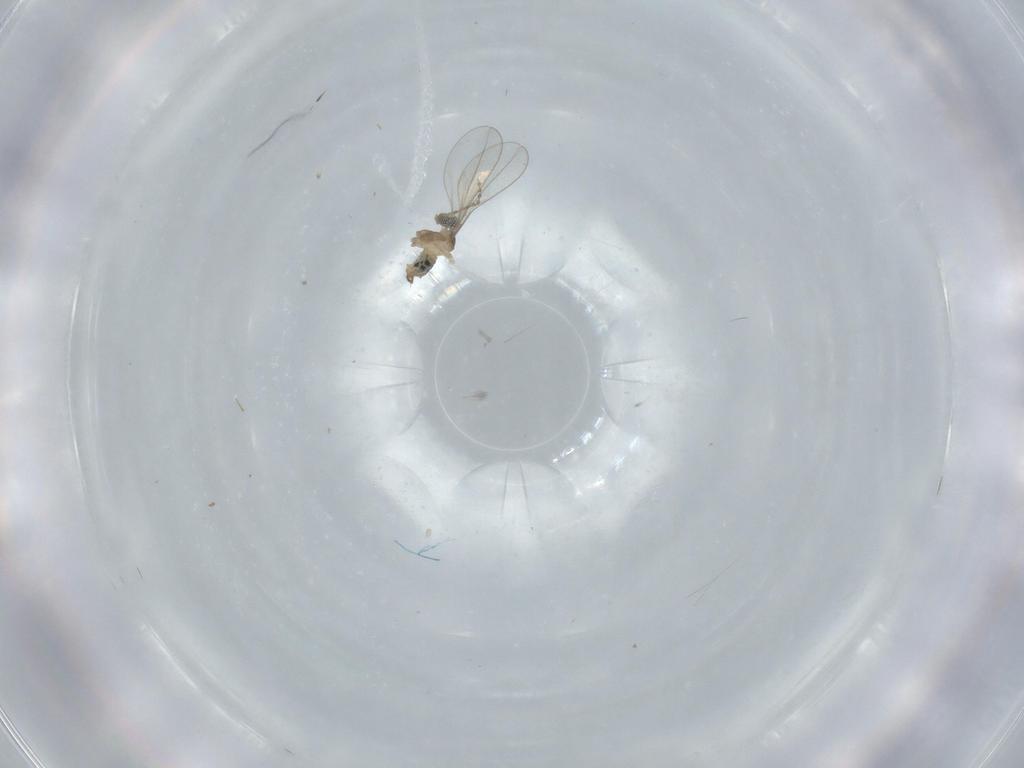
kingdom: Animalia
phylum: Arthropoda
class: Insecta
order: Diptera
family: Cecidomyiidae
